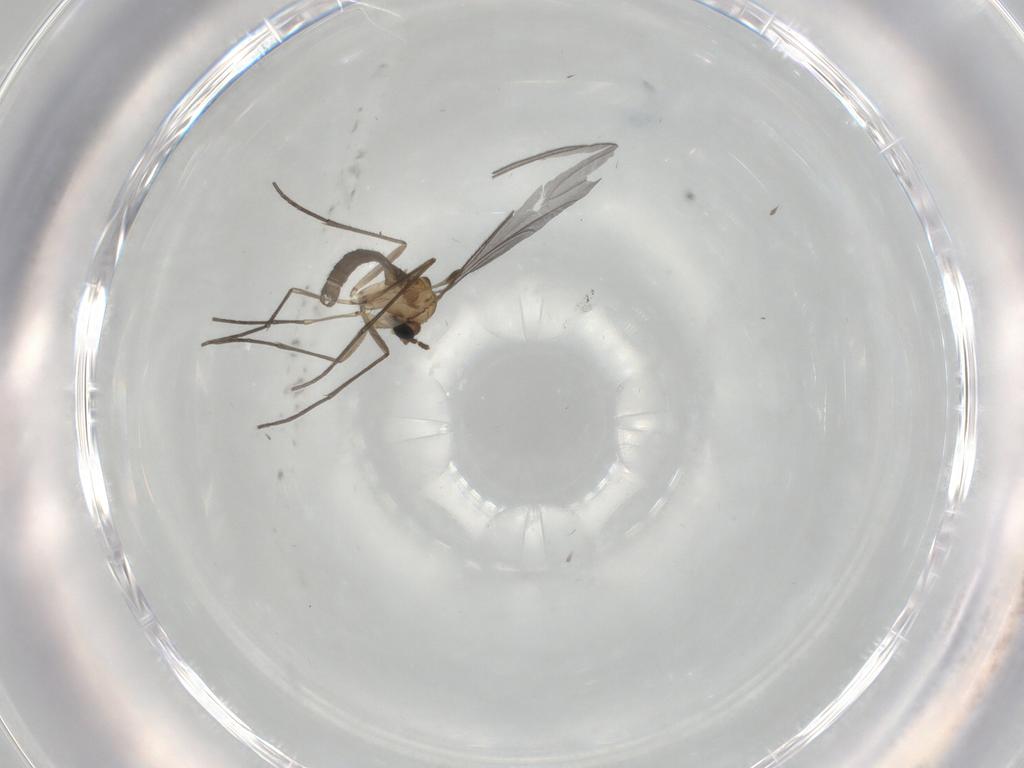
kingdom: Animalia
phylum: Arthropoda
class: Insecta
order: Diptera
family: Sciaridae
